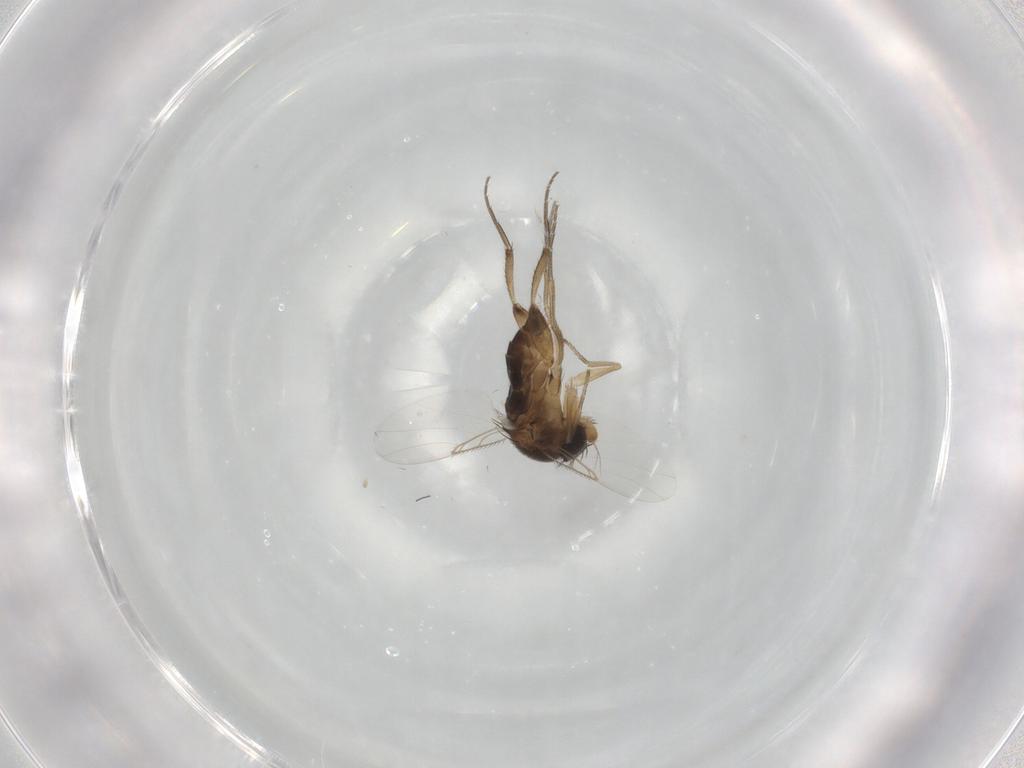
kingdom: Animalia
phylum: Arthropoda
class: Insecta
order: Diptera
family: Phoridae
